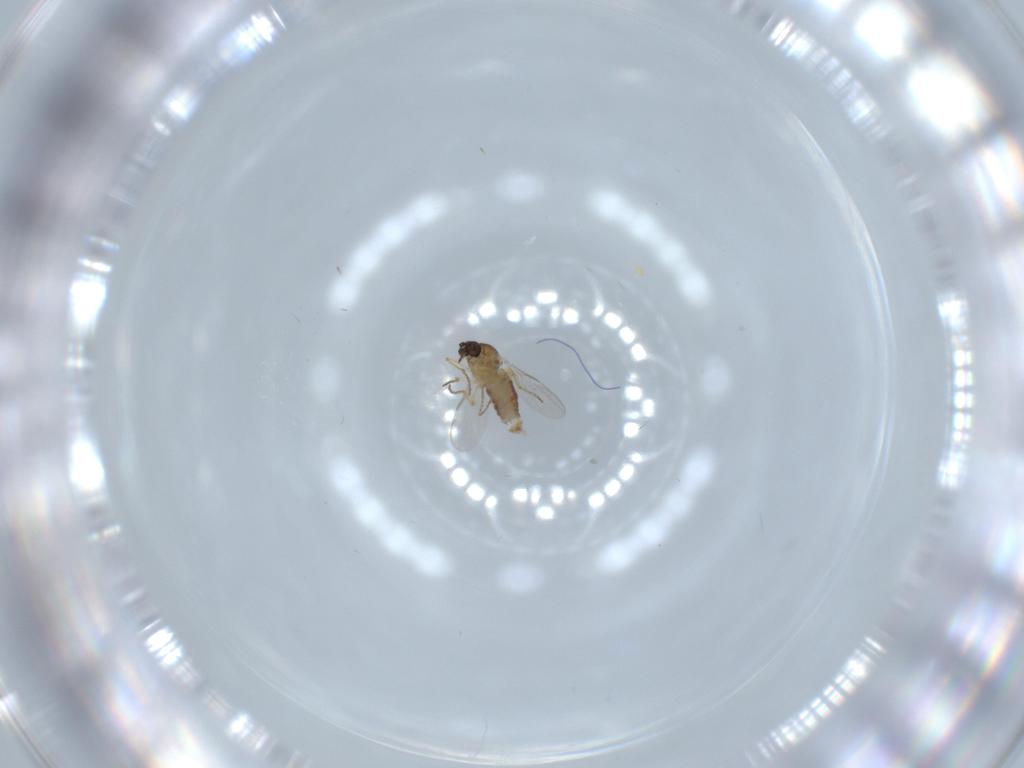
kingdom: Animalia
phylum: Arthropoda
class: Insecta
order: Diptera
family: Ceratopogonidae
